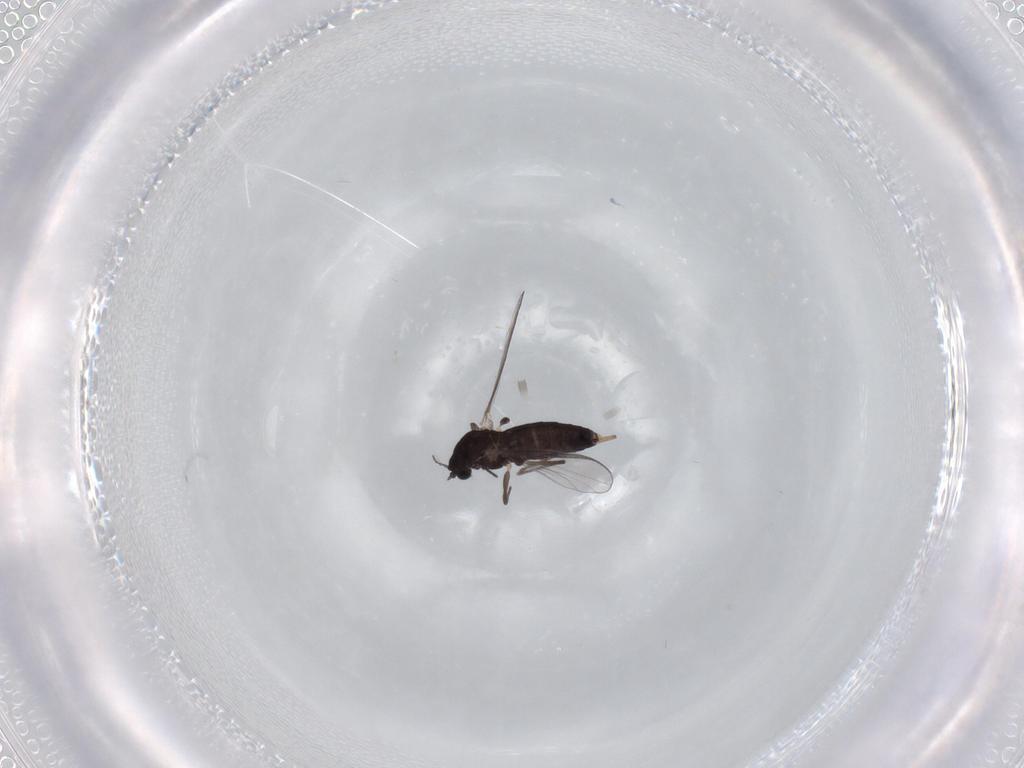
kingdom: Animalia
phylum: Arthropoda
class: Insecta
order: Diptera
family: Chironomidae
